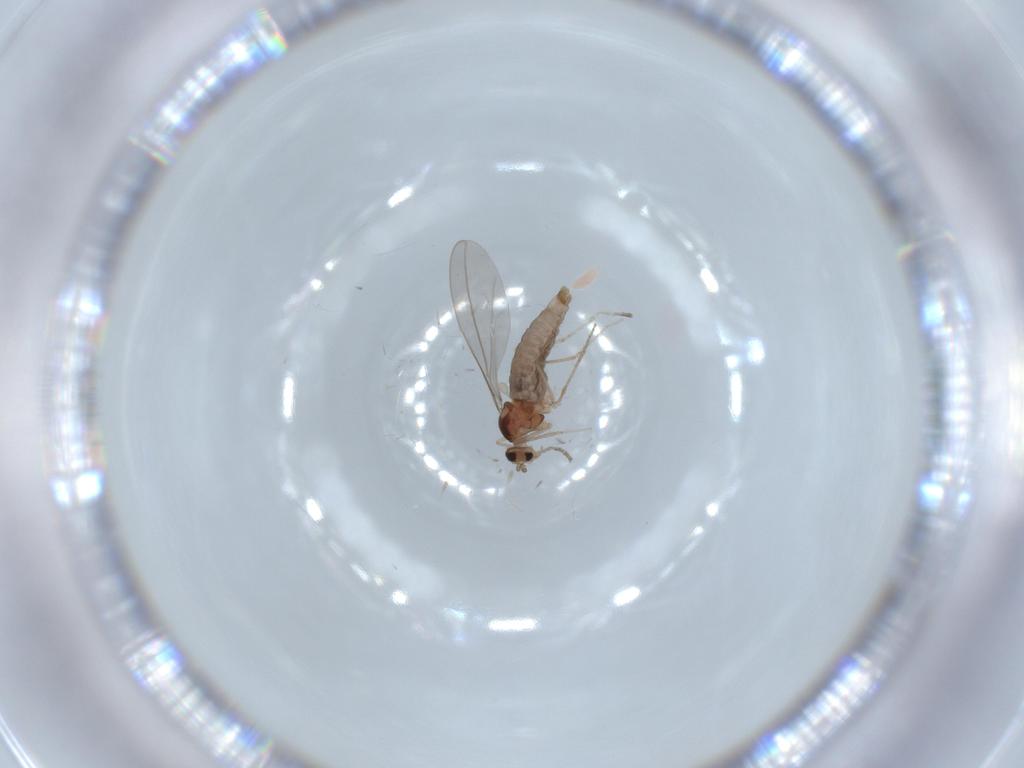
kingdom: Animalia
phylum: Arthropoda
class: Insecta
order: Diptera
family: Cecidomyiidae
